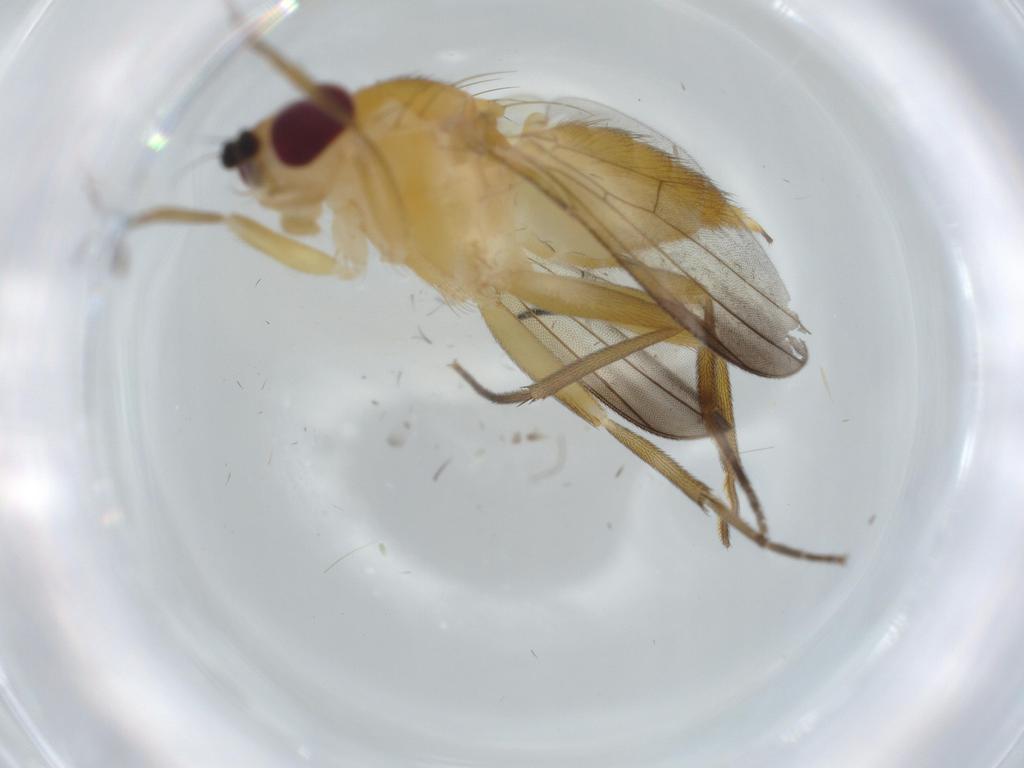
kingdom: Animalia
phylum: Arthropoda
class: Insecta
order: Diptera
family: Clusiidae
